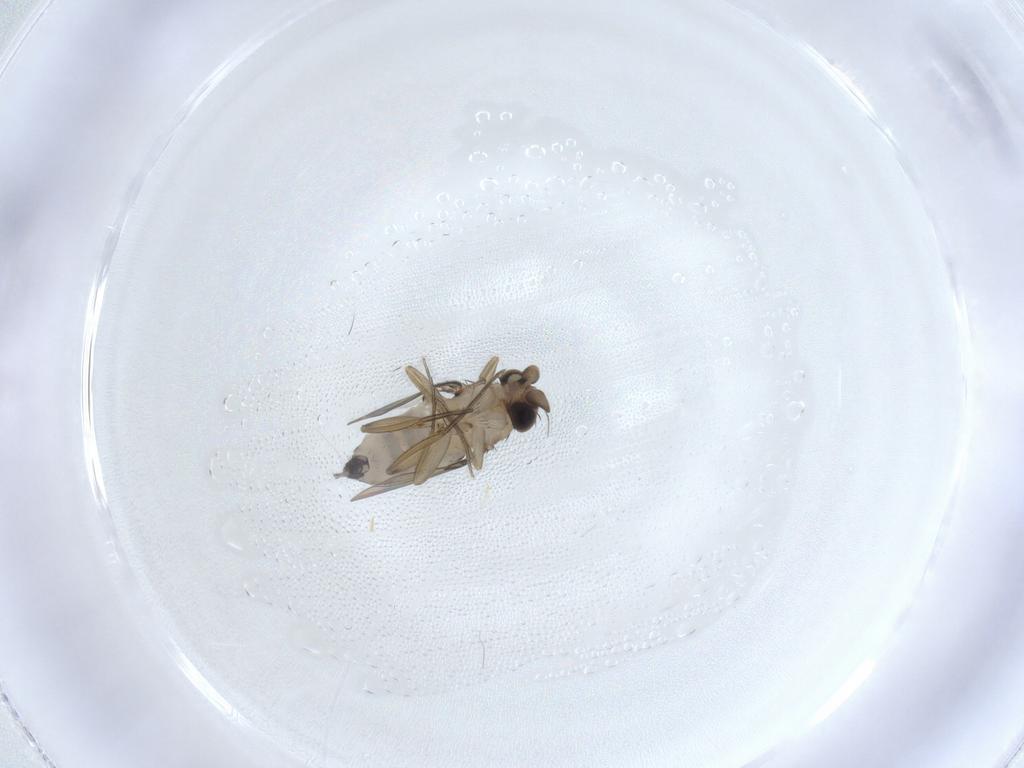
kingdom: Animalia
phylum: Arthropoda
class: Insecta
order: Diptera
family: Phoridae
